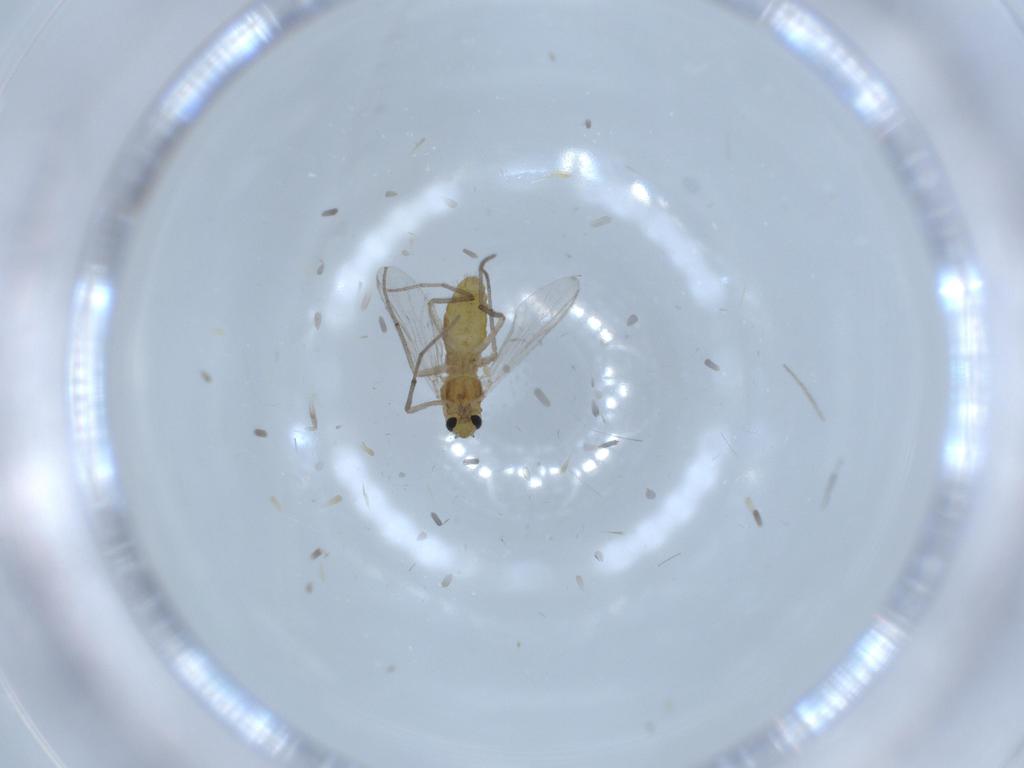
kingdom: Animalia
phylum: Arthropoda
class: Insecta
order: Diptera
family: Chironomidae
